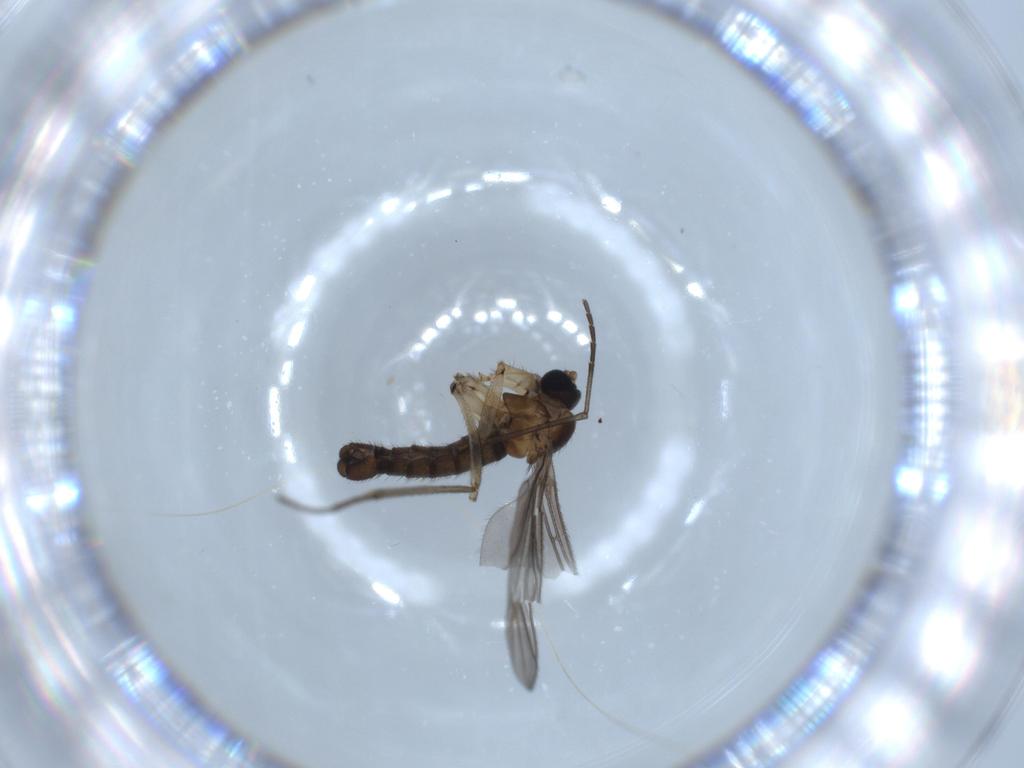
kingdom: Animalia
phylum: Arthropoda
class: Insecta
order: Diptera
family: Sciaridae
